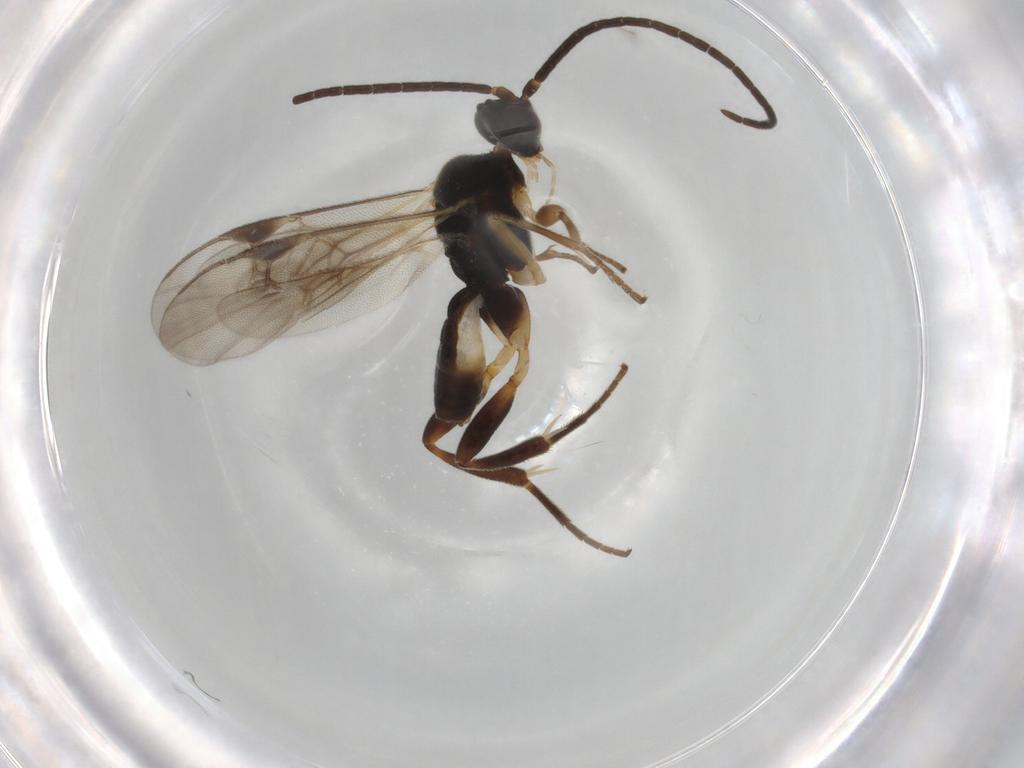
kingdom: Animalia
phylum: Arthropoda
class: Insecta
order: Hymenoptera
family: Braconidae
